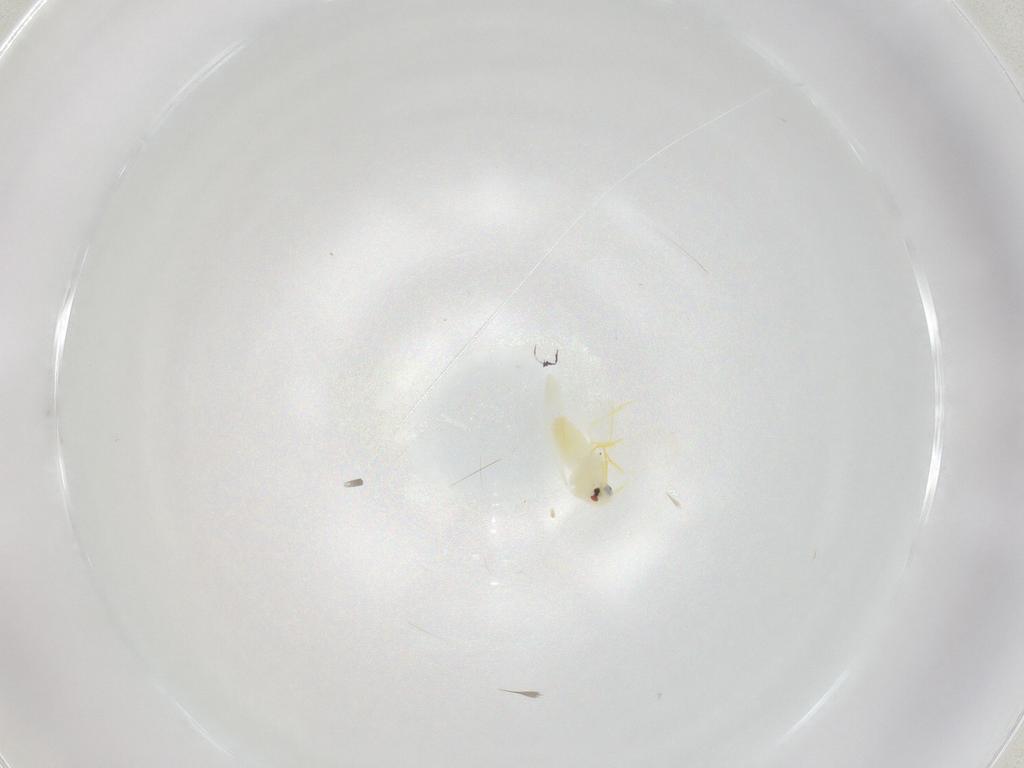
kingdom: Animalia
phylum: Arthropoda
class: Insecta
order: Hemiptera
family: Aleyrodidae
